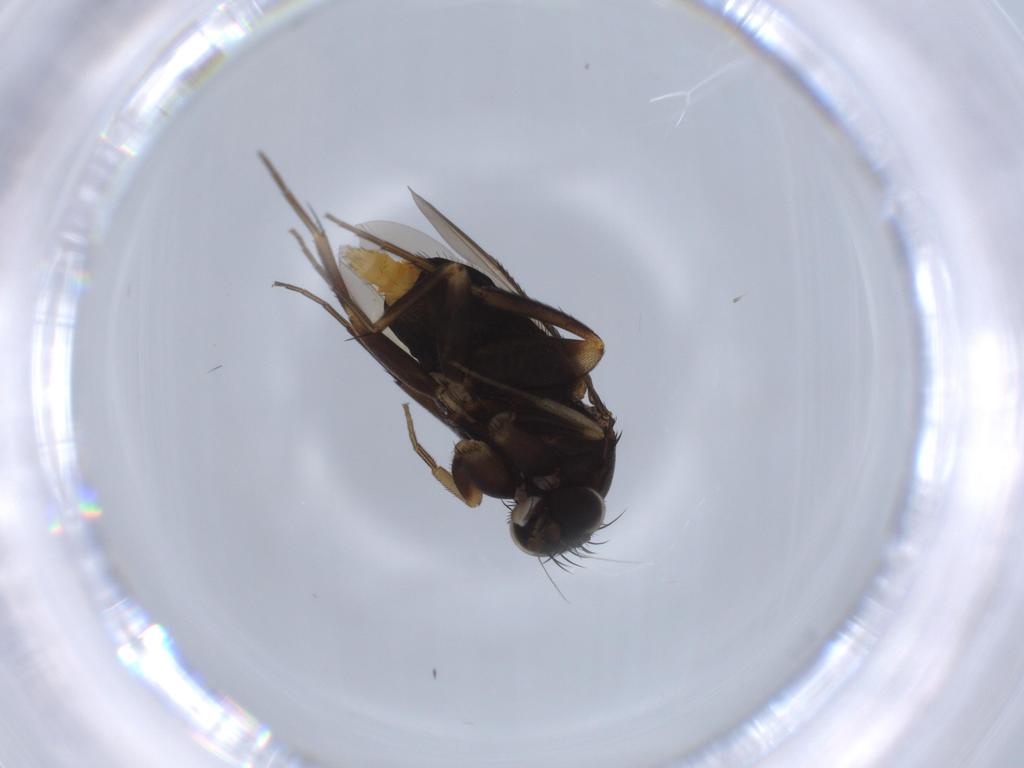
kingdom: Animalia
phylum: Arthropoda
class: Insecta
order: Diptera
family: Phoridae
